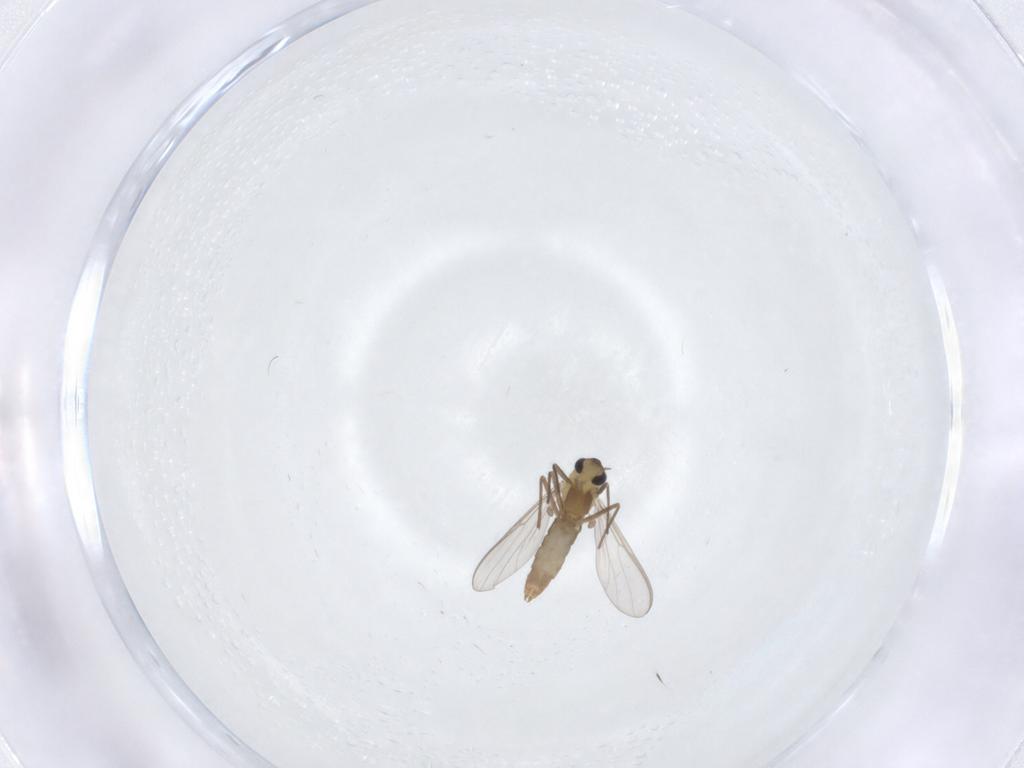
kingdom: Animalia
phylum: Arthropoda
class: Insecta
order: Diptera
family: Chironomidae
